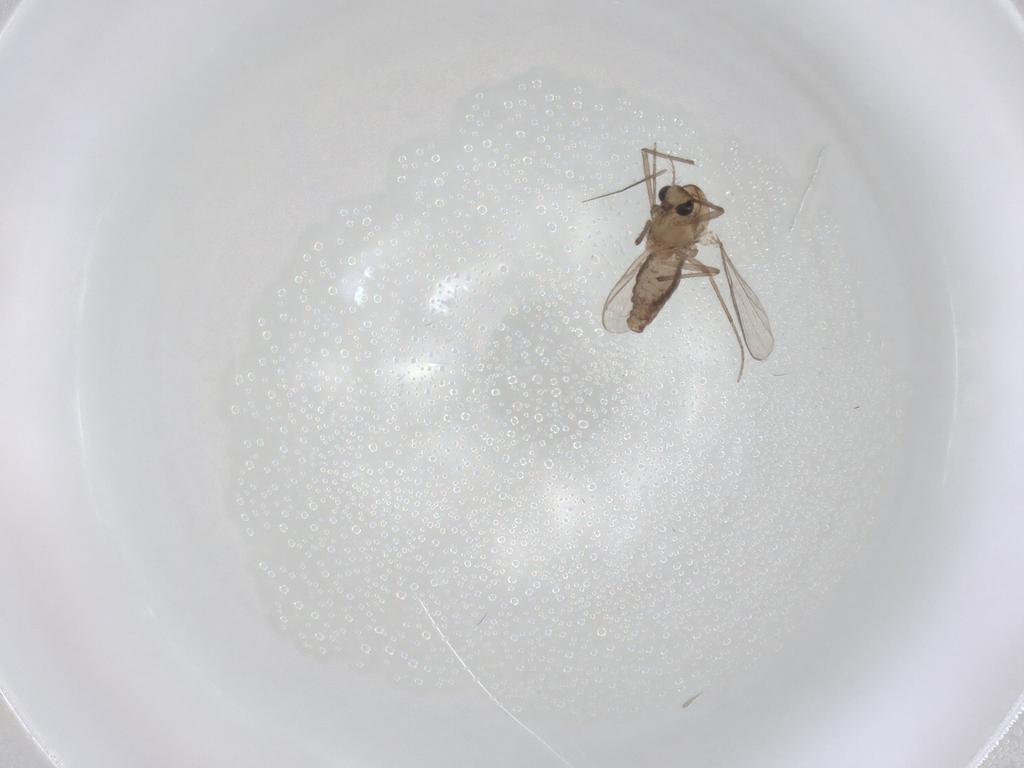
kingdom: Animalia
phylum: Arthropoda
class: Insecta
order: Diptera
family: Chironomidae
